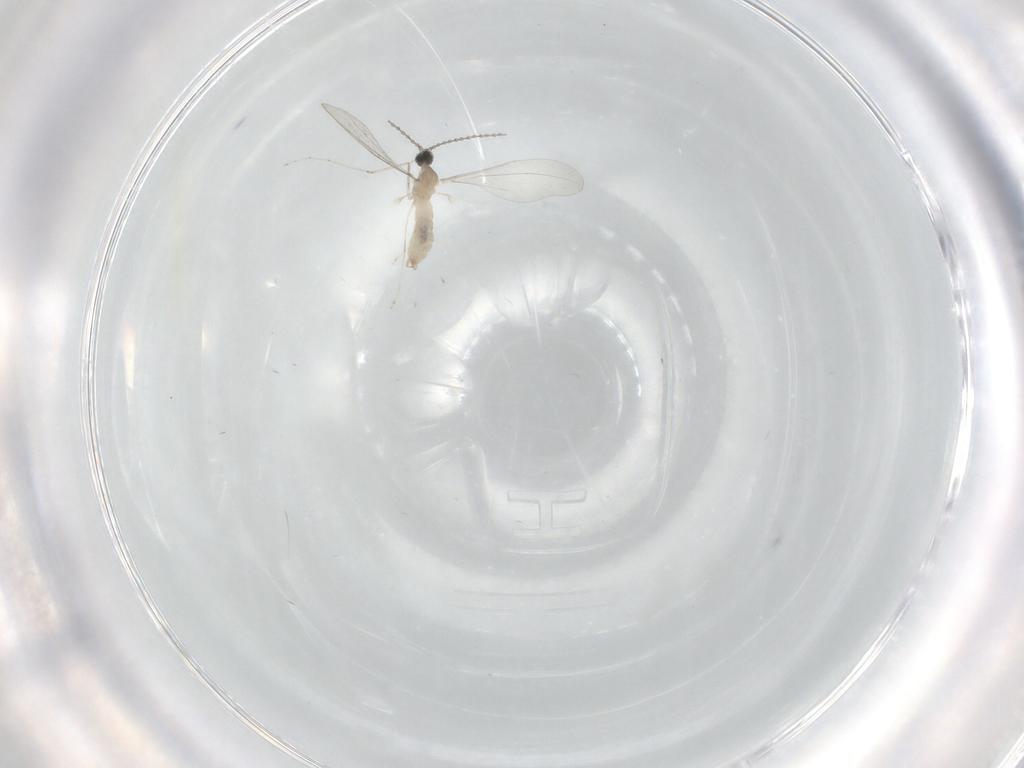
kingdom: Animalia
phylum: Arthropoda
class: Insecta
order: Diptera
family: Cecidomyiidae
